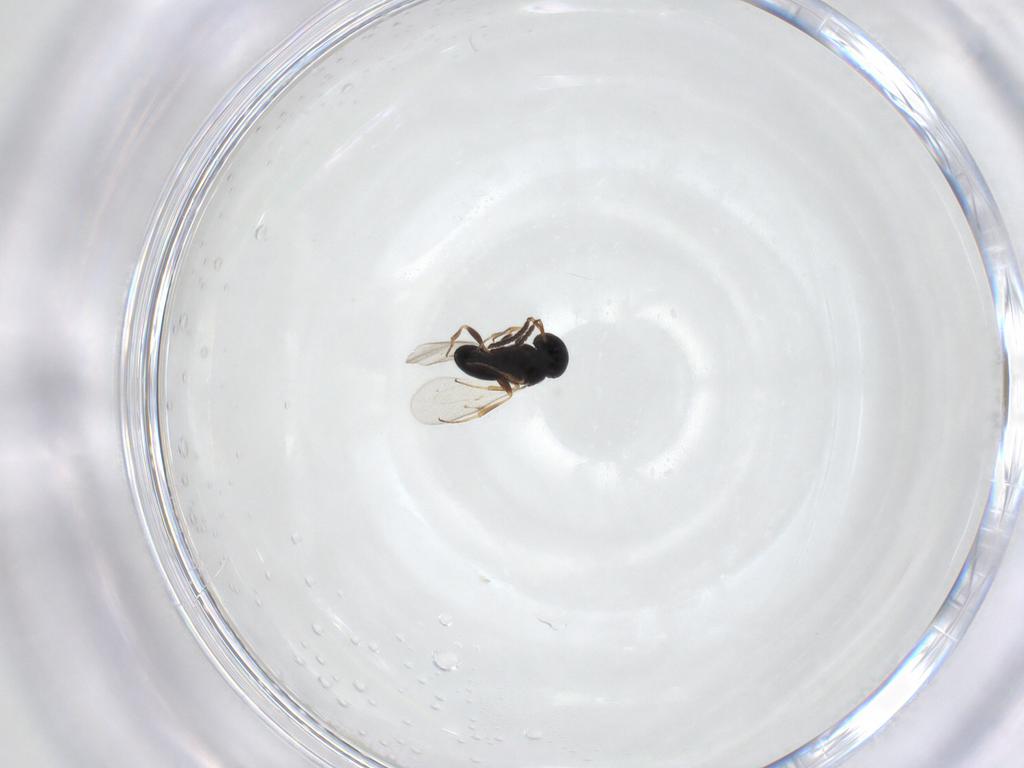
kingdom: Animalia
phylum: Arthropoda
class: Insecta
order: Hymenoptera
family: Scelionidae
